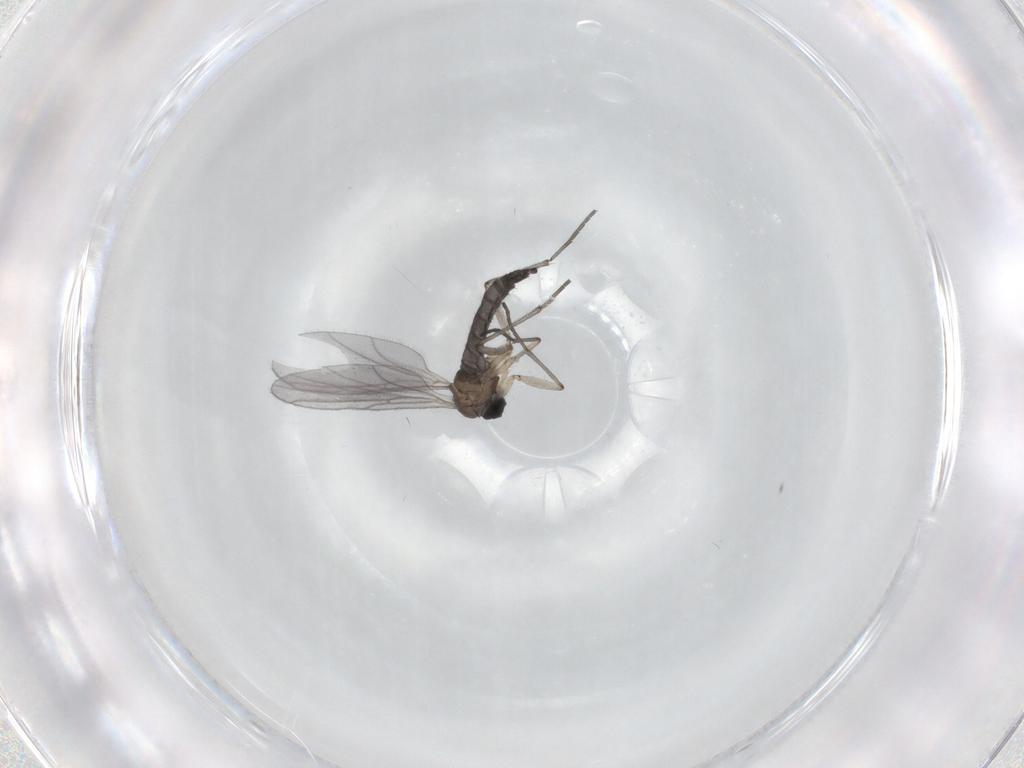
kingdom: Animalia
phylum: Arthropoda
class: Insecta
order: Diptera
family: Sciaridae
